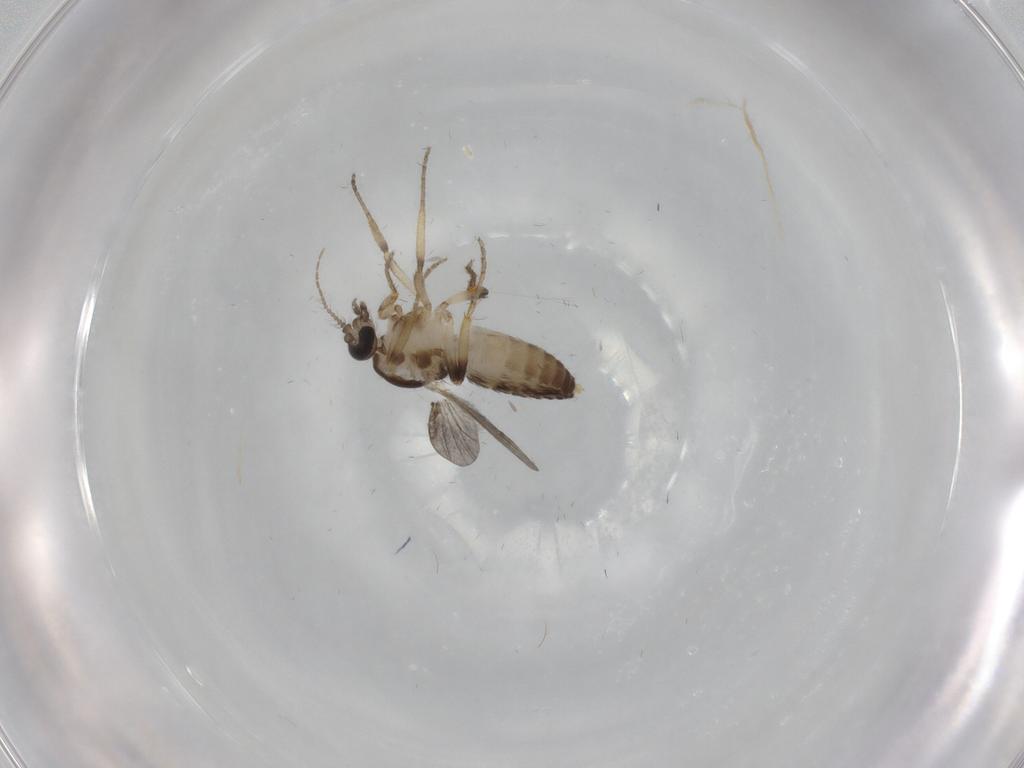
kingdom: Animalia
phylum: Arthropoda
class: Insecta
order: Diptera
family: Ceratopogonidae
